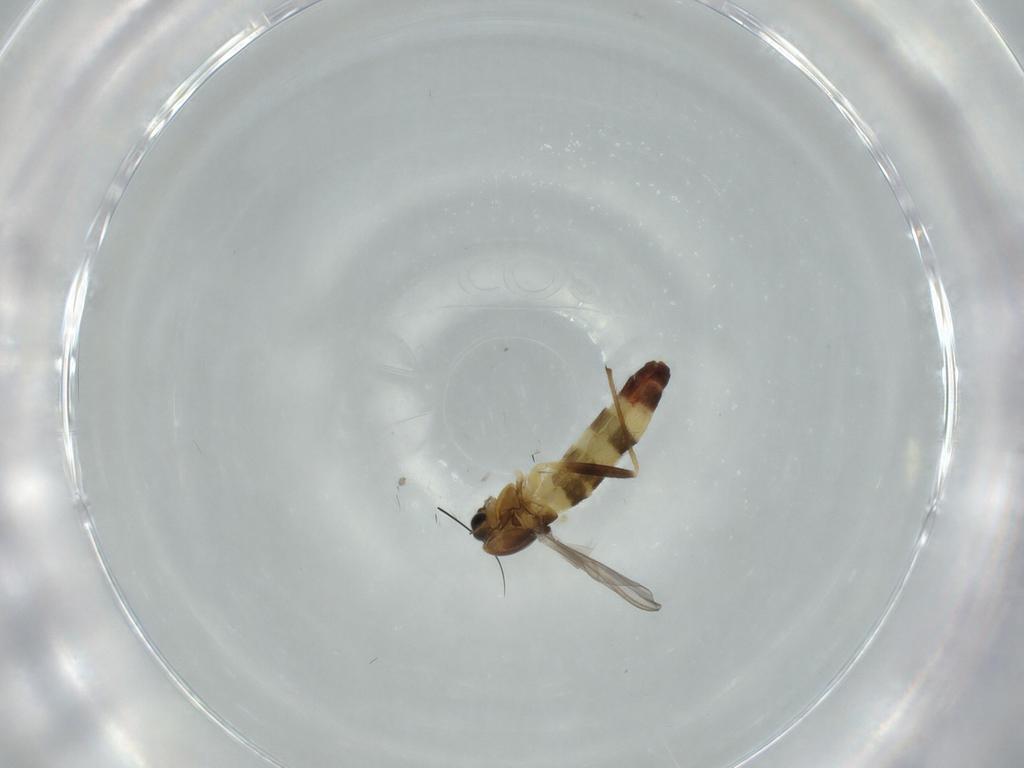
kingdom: Animalia
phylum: Arthropoda
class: Insecta
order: Diptera
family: Chironomidae
